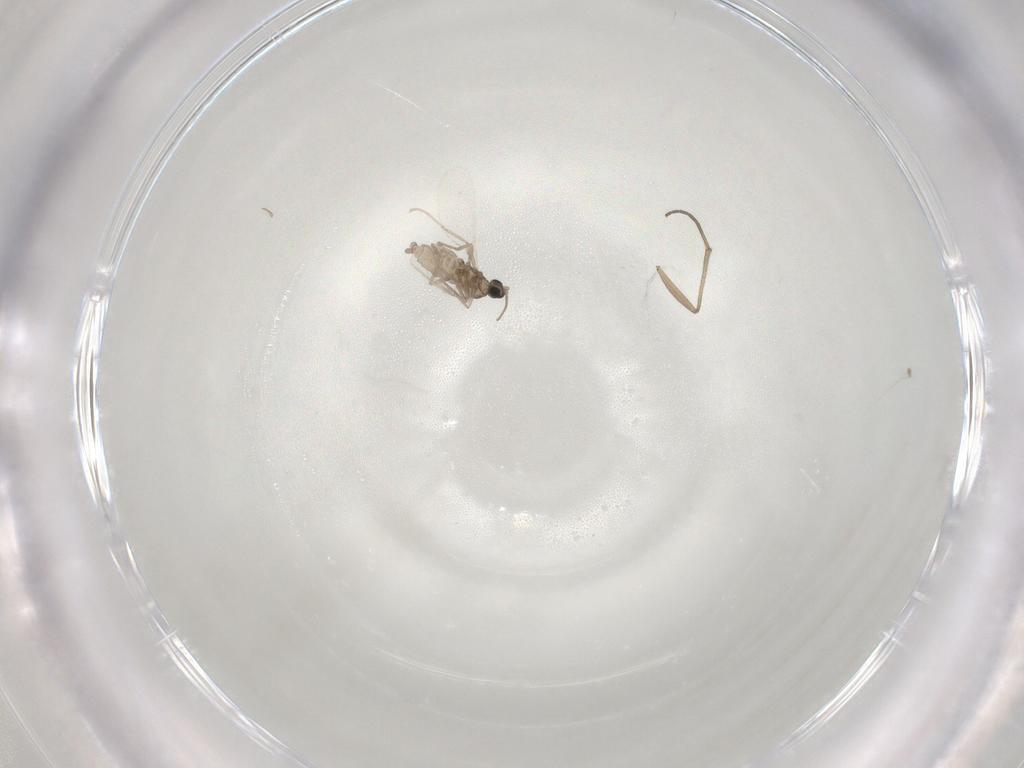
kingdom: Animalia
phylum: Arthropoda
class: Insecta
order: Diptera
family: Cecidomyiidae
